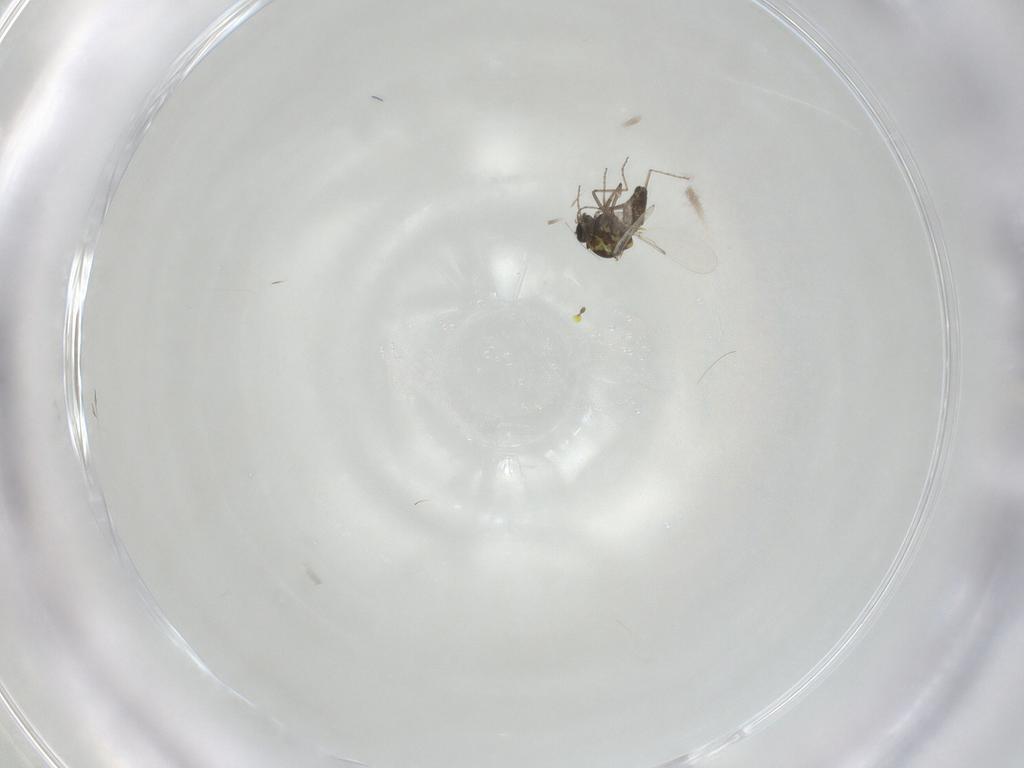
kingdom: Animalia
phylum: Arthropoda
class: Insecta
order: Diptera
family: Ceratopogonidae
